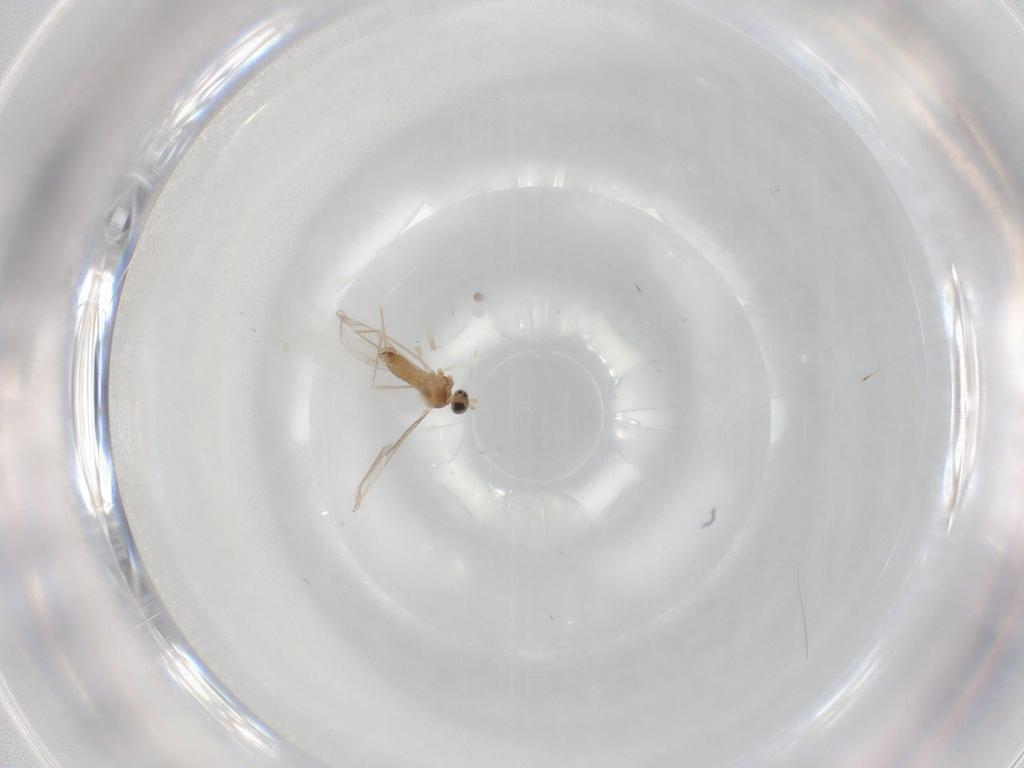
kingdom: Animalia
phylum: Arthropoda
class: Insecta
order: Diptera
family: Cecidomyiidae
